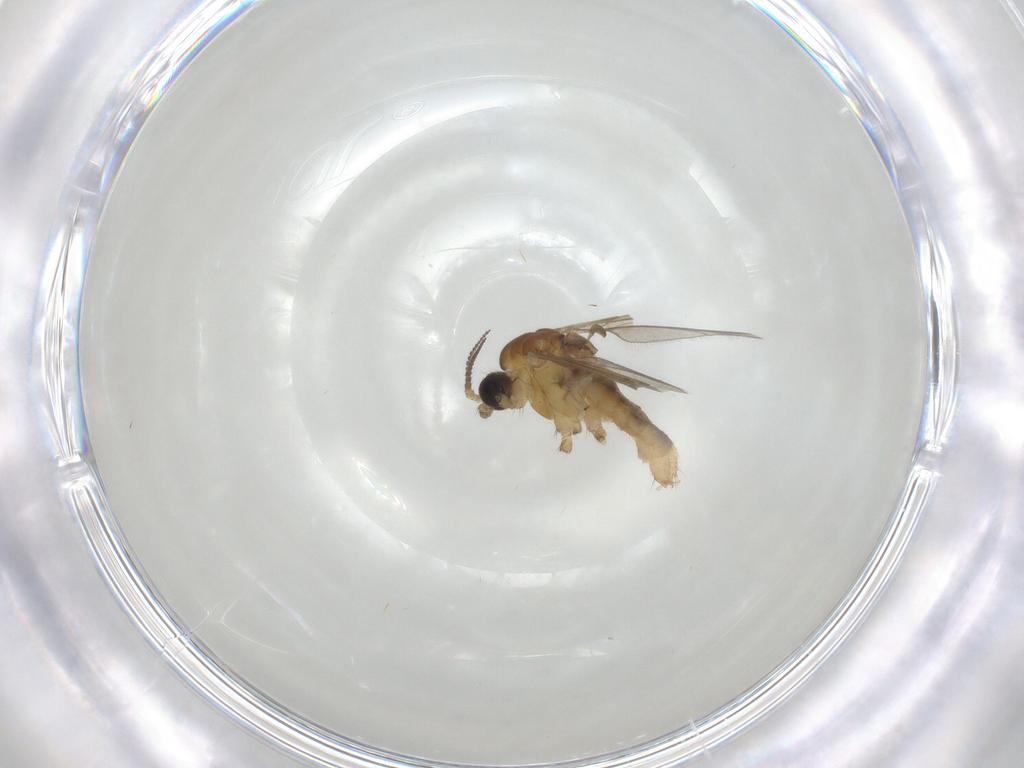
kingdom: Animalia
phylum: Arthropoda
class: Insecta
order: Diptera
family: Limoniidae
